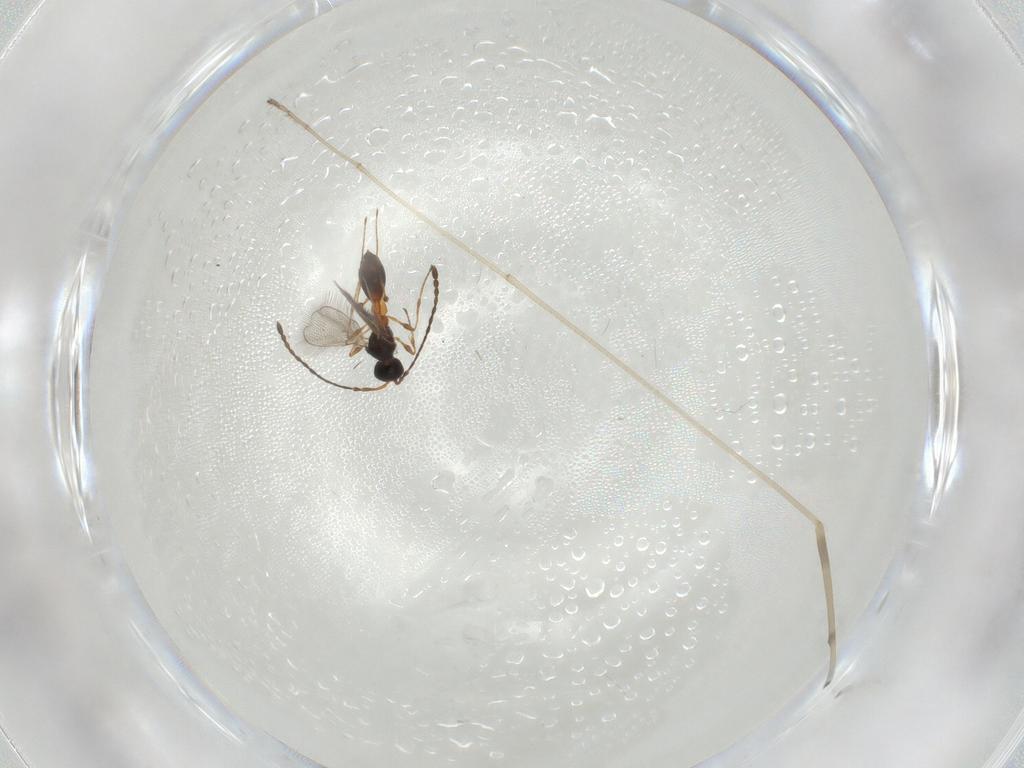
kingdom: Animalia
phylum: Arthropoda
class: Insecta
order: Hymenoptera
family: Diapriidae
